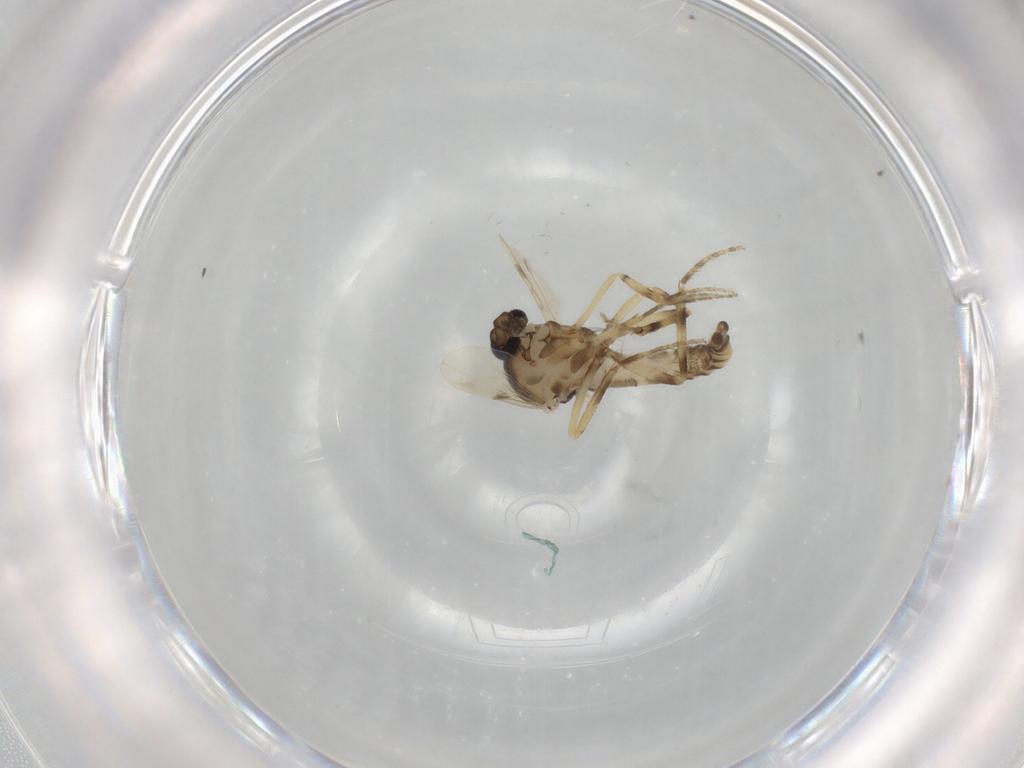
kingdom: Animalia
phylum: Arthropoda
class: Insecta
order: Diptera
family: Ceratopogonidae
